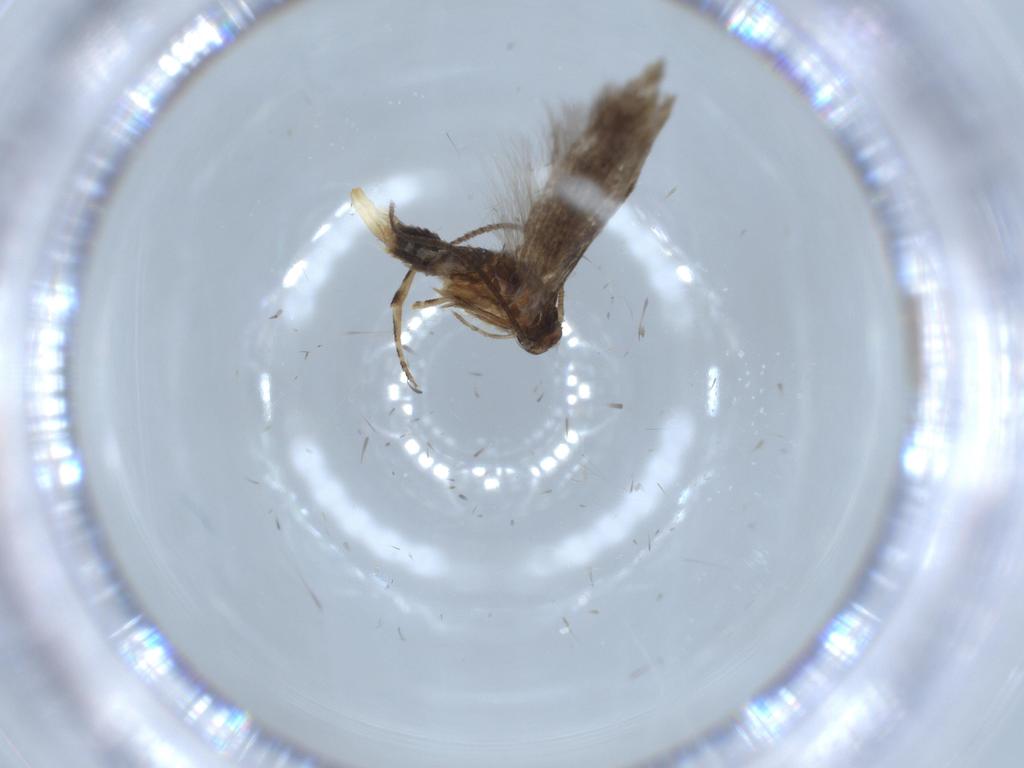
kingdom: Animalia
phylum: Arthropoda
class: Insecta
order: Lepidoptera
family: Elachistidae
